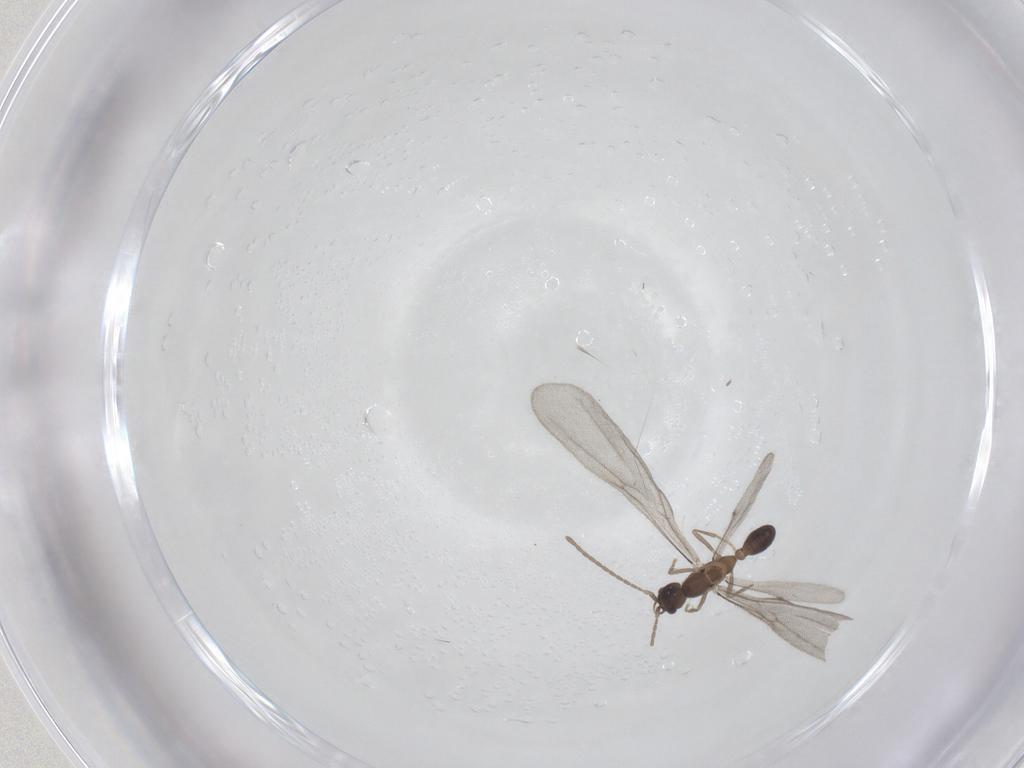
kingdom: Animalia
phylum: Arthropoda
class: Insecta
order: Hymenoptera
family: Formicidae
